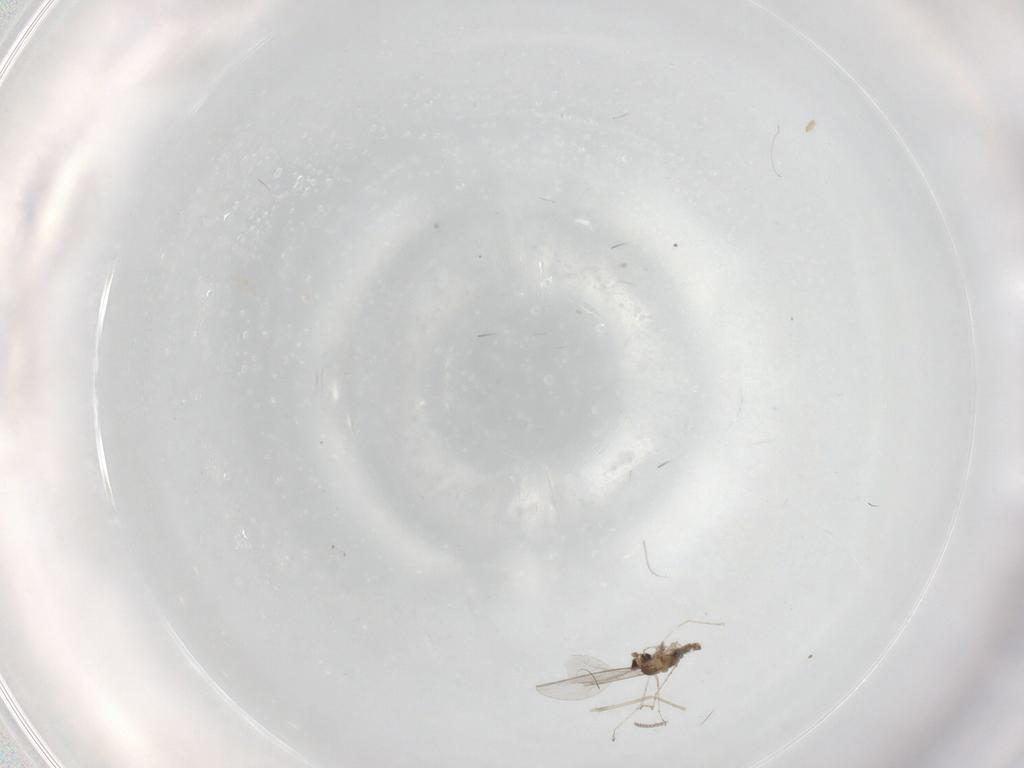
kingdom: Animalia
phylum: Arthropoda
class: Insecta
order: Diptera
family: Cecidomyiidae
